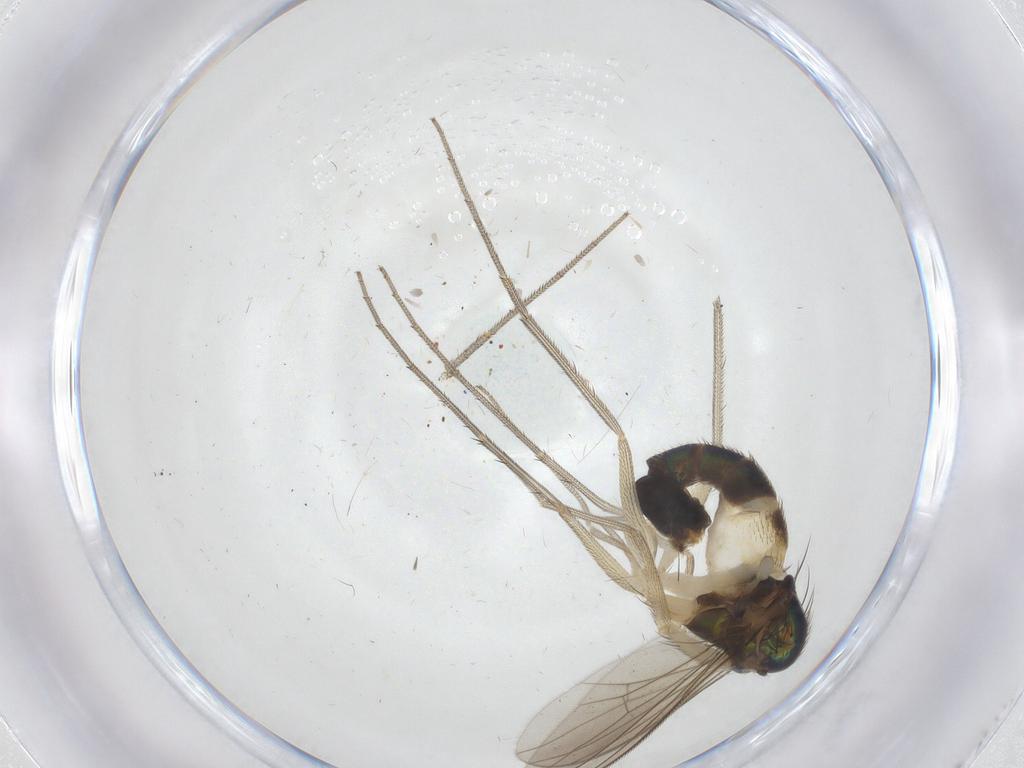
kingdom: Animalia
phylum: Arthropoda
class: Insecta
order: Diptera
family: Dolichopodidae
